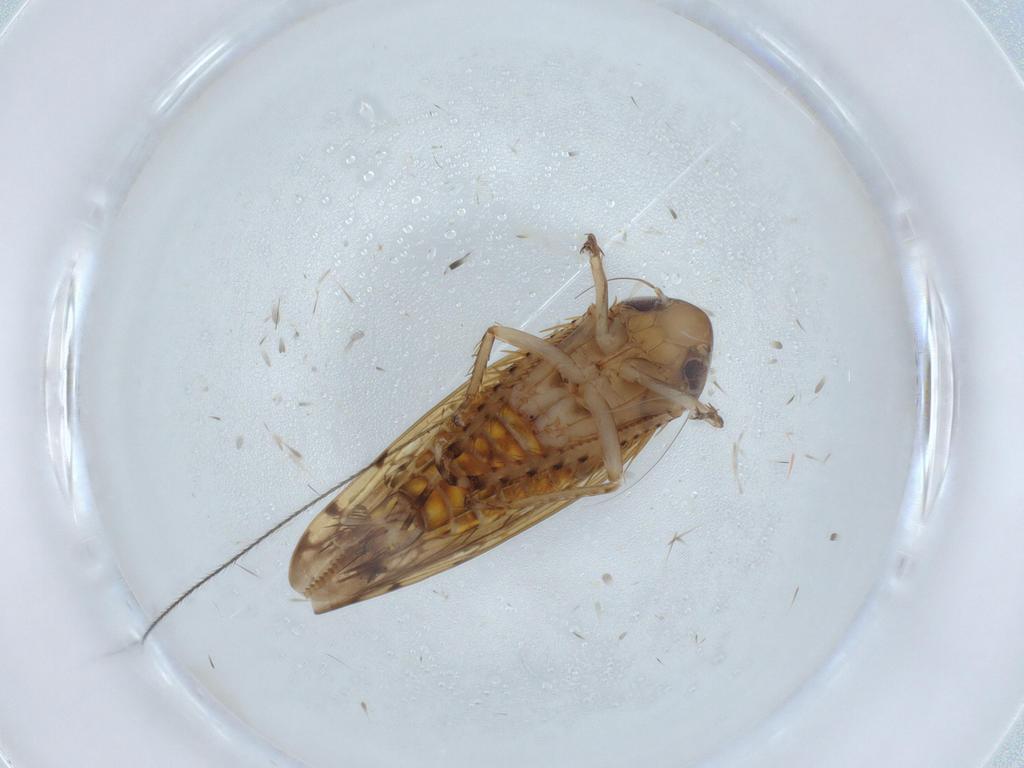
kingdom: Animalia
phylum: Arthropoda
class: Insecta
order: Hemiptera
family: Cicadellidae
